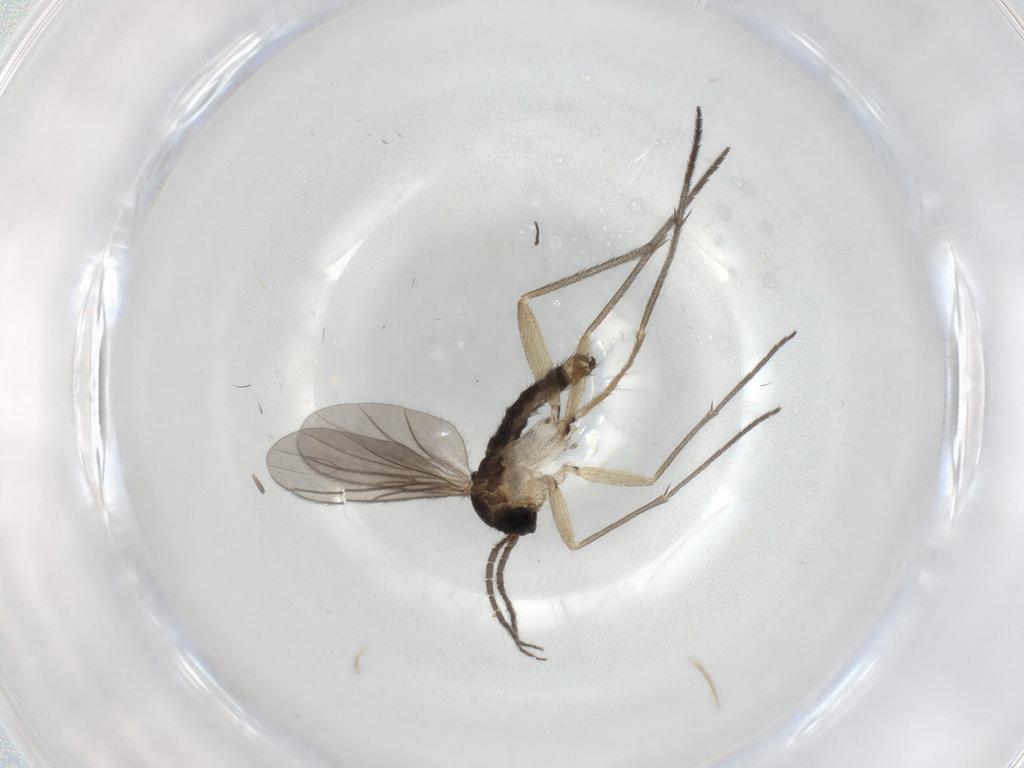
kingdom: Animalia
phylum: Arthropoda
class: Insecta
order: Diptera
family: Sciaridae
